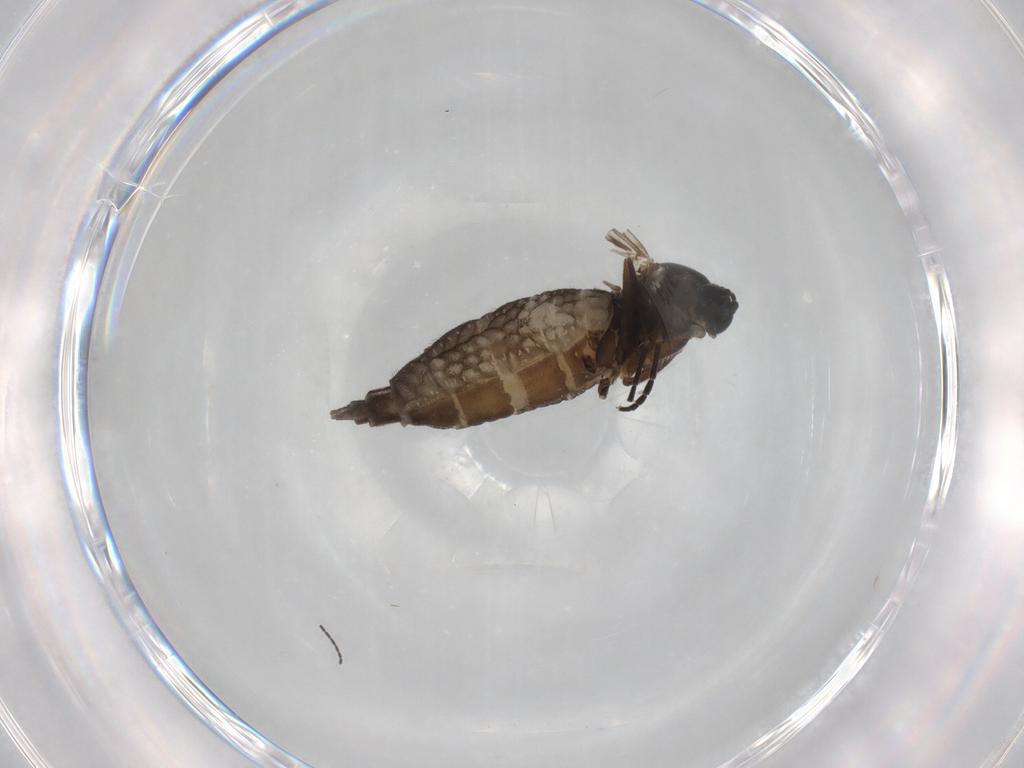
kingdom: Animalia
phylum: Arthropoda
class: Insecta
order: Diptera
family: Sciaridae
